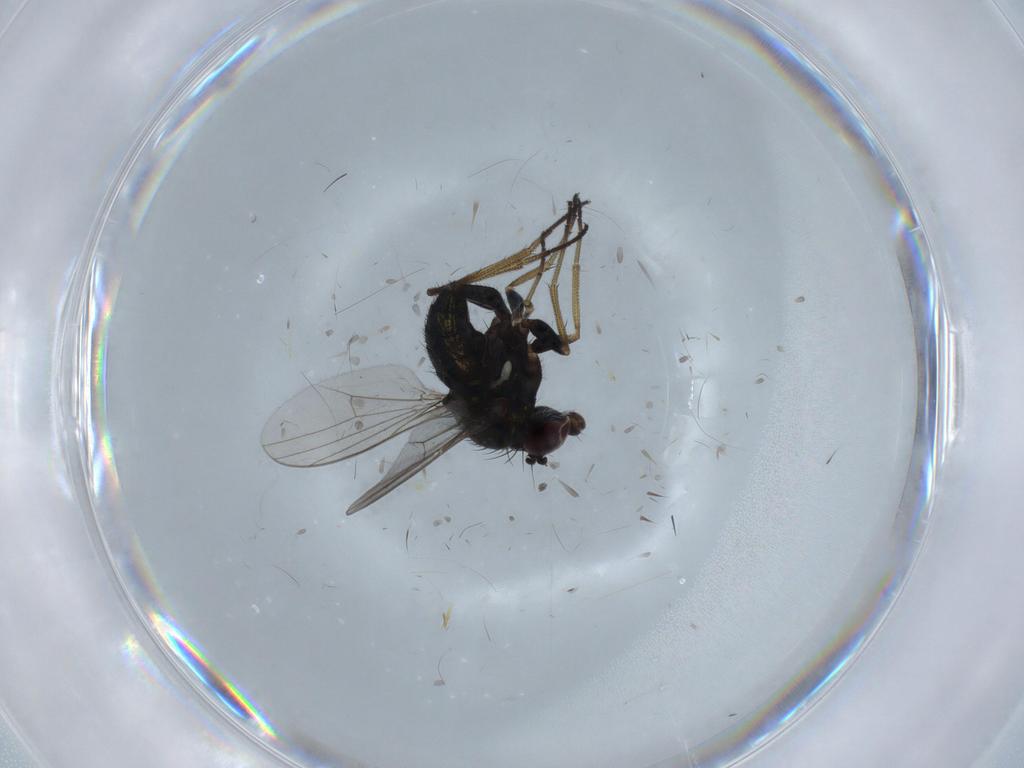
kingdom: Animalia
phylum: Arthropoda
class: Insecta
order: Diptera
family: Dolichopodidae
